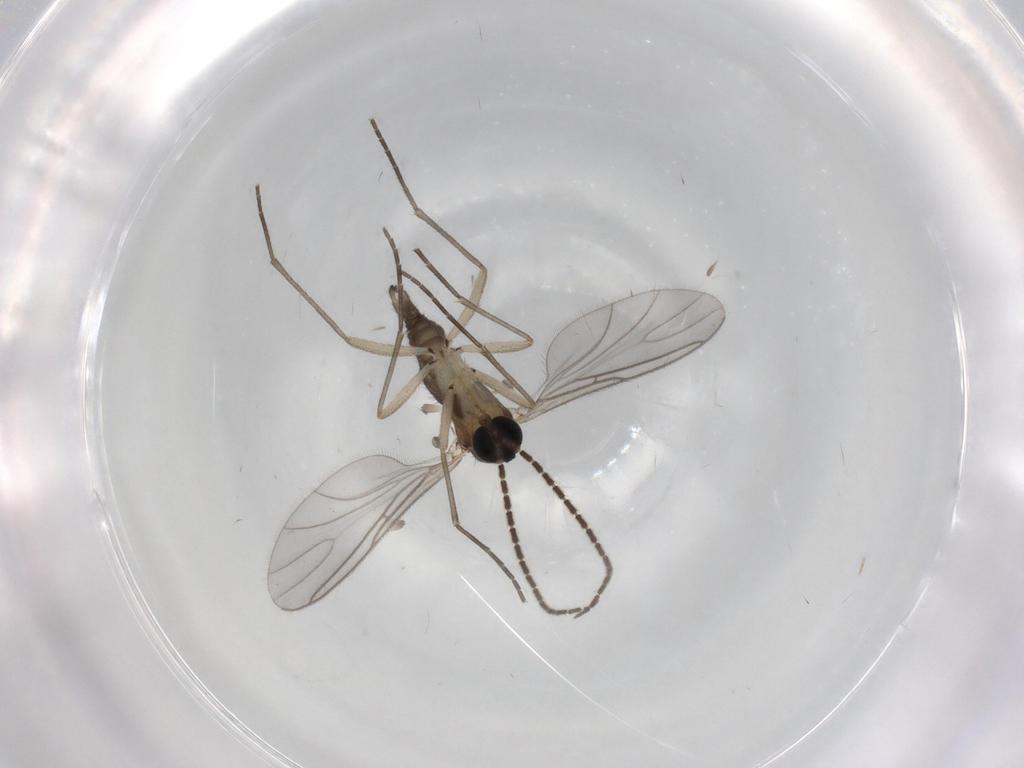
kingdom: Animalia
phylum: Arthropoda
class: Insecta
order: Diptera
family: Sciaridae
